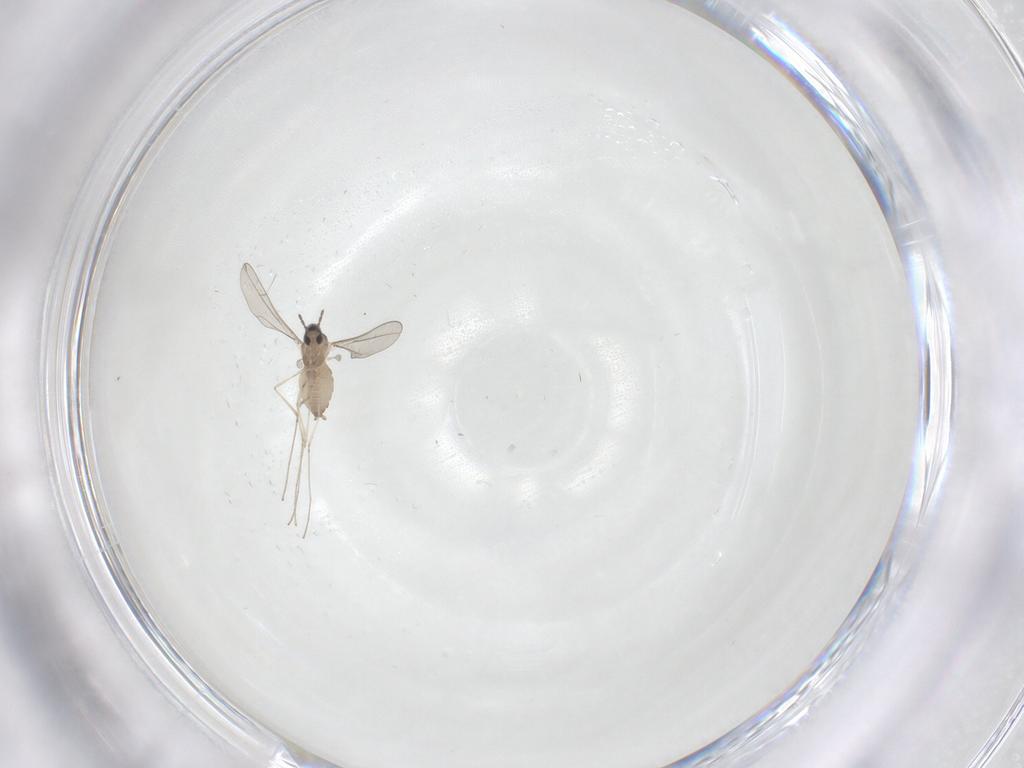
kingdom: Animalia
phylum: Arthropoda
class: Insecta
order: Diptera
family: Cecidomyiidae
